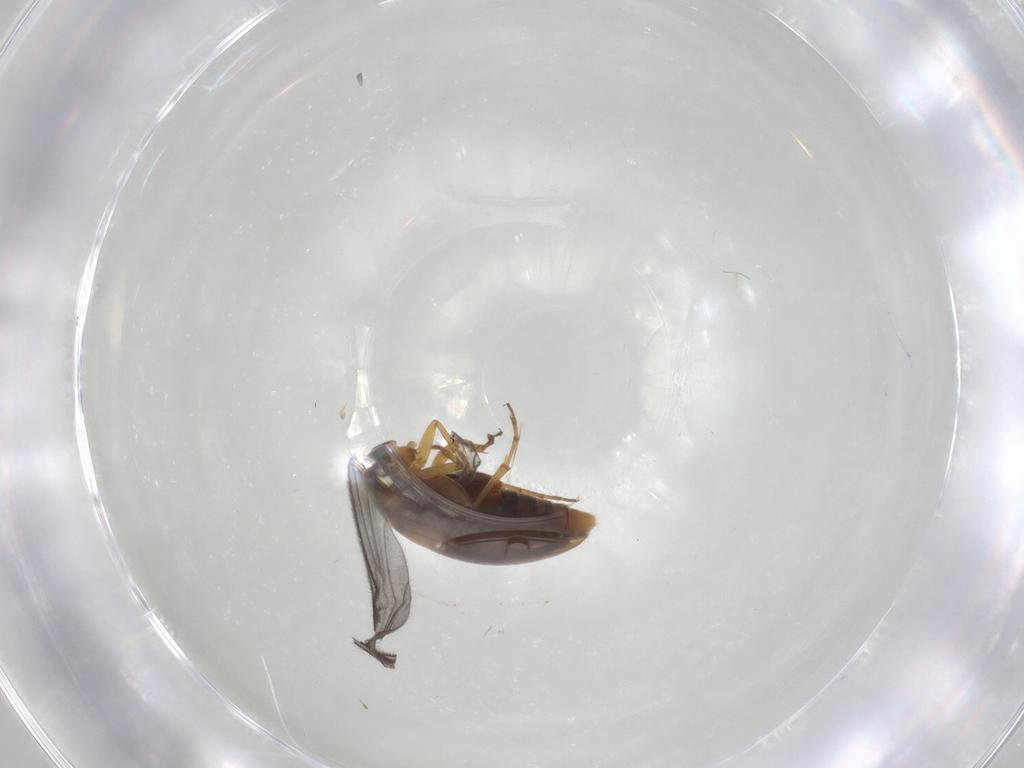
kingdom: Animalia
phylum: Arthropoda
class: Insecta
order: Coleoptera
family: Scraptiidae
